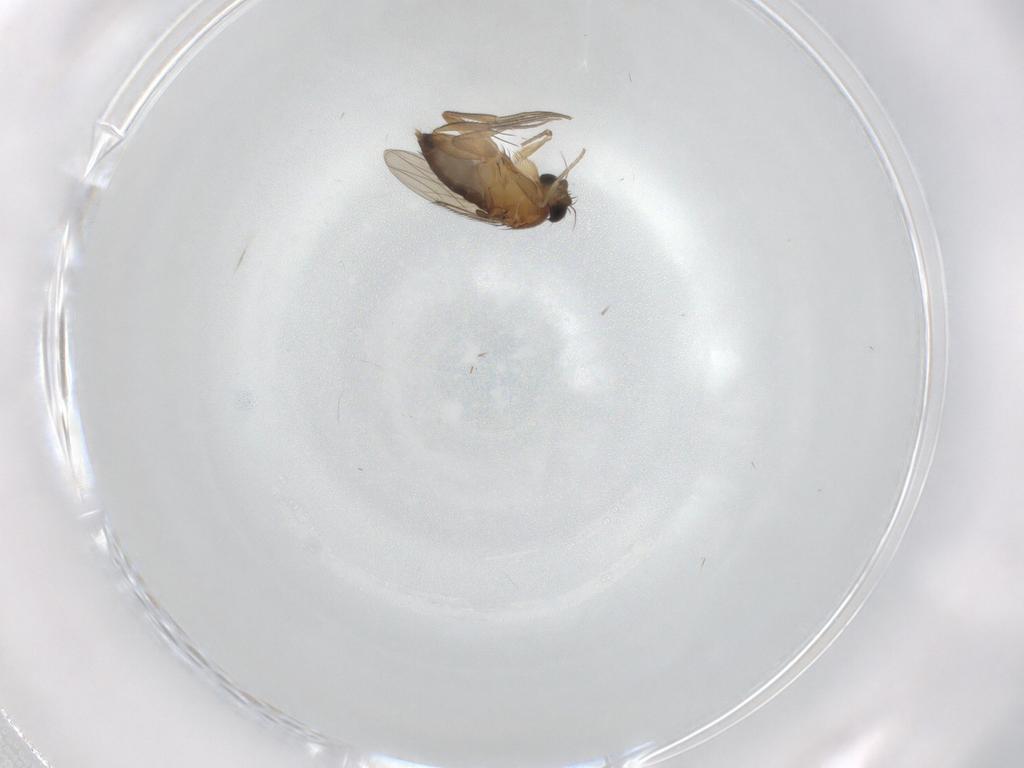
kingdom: Animalia
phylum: Arthropoda
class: Insecta
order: Diptera
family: Phoridae
